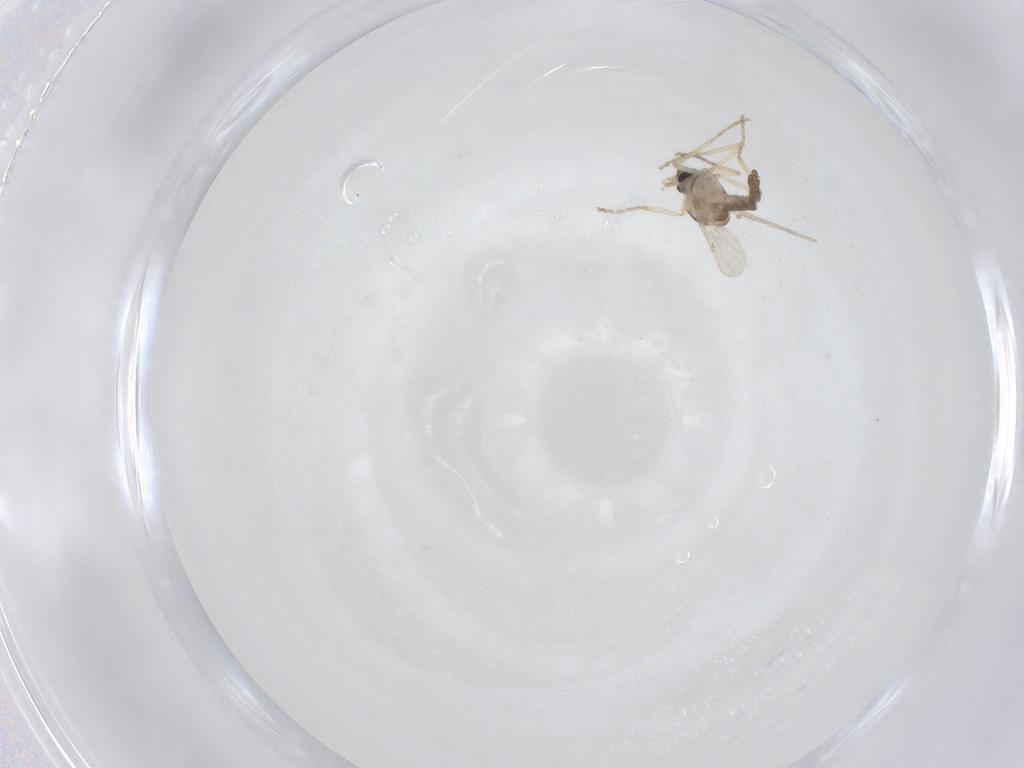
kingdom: Animalia
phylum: Arthropoda
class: Insecta
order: Diptera
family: Ceratopogonidae
